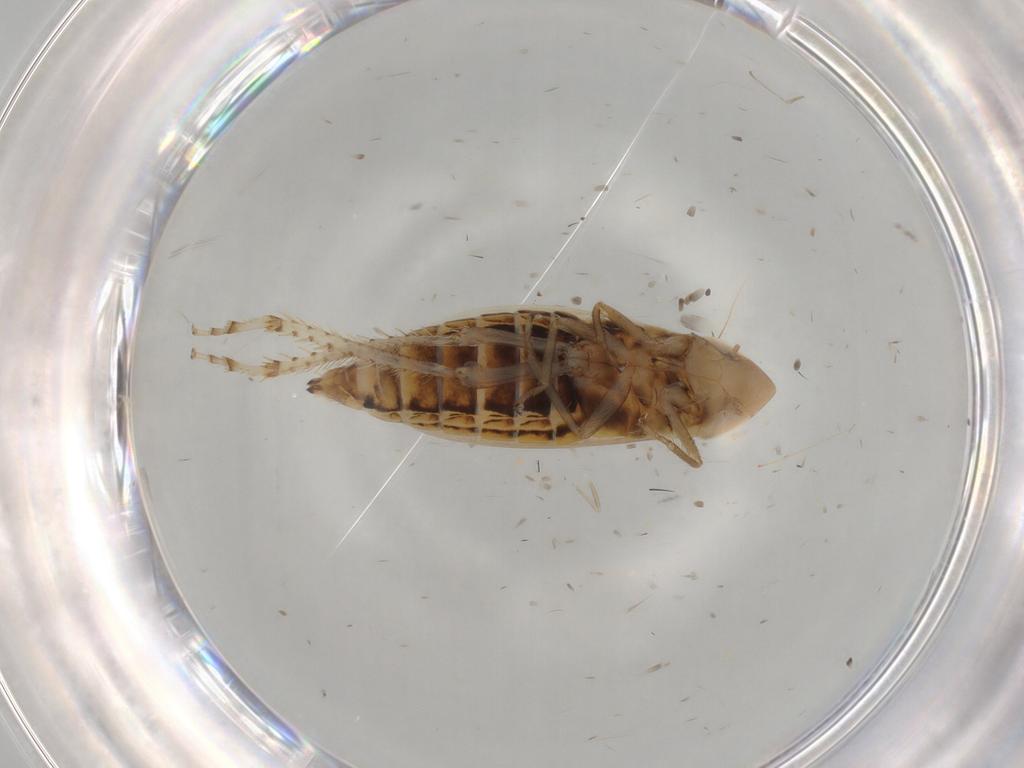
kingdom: Animalia
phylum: Arthropoda
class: Insecta
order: Hemiptera
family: Cicadellidae
